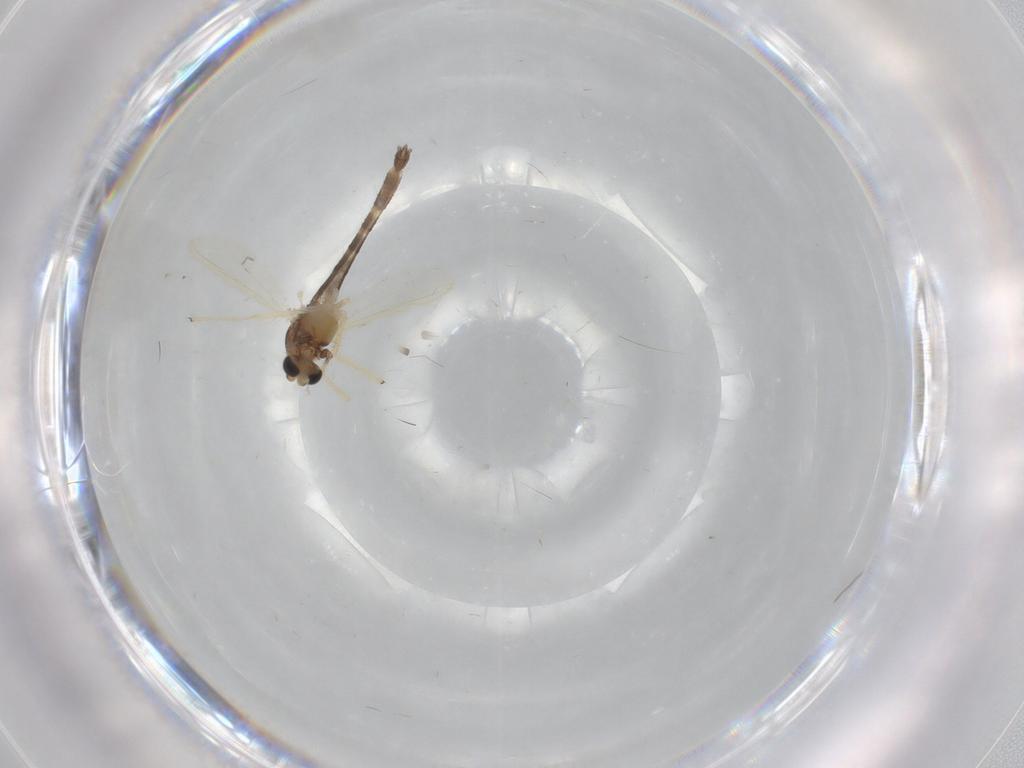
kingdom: Animalia
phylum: Arthropoda
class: Insecta
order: Diptera
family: Chironomidae
